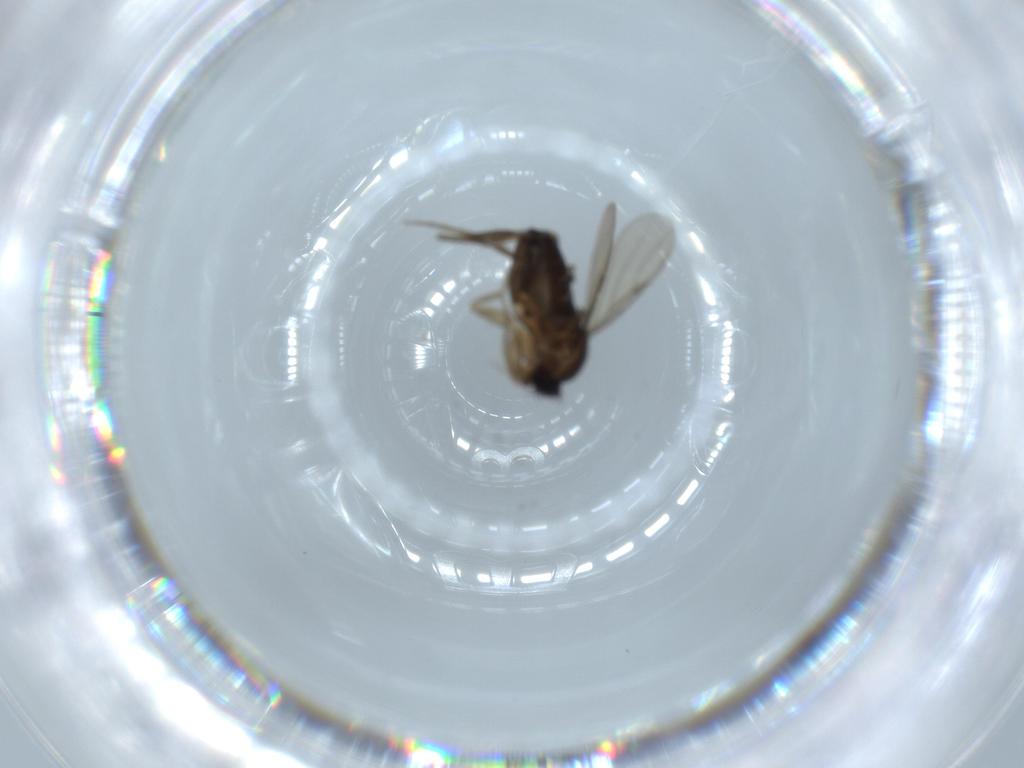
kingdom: Animalia
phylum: Arthropoda
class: Insecta
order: Diptera
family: Phoridae
